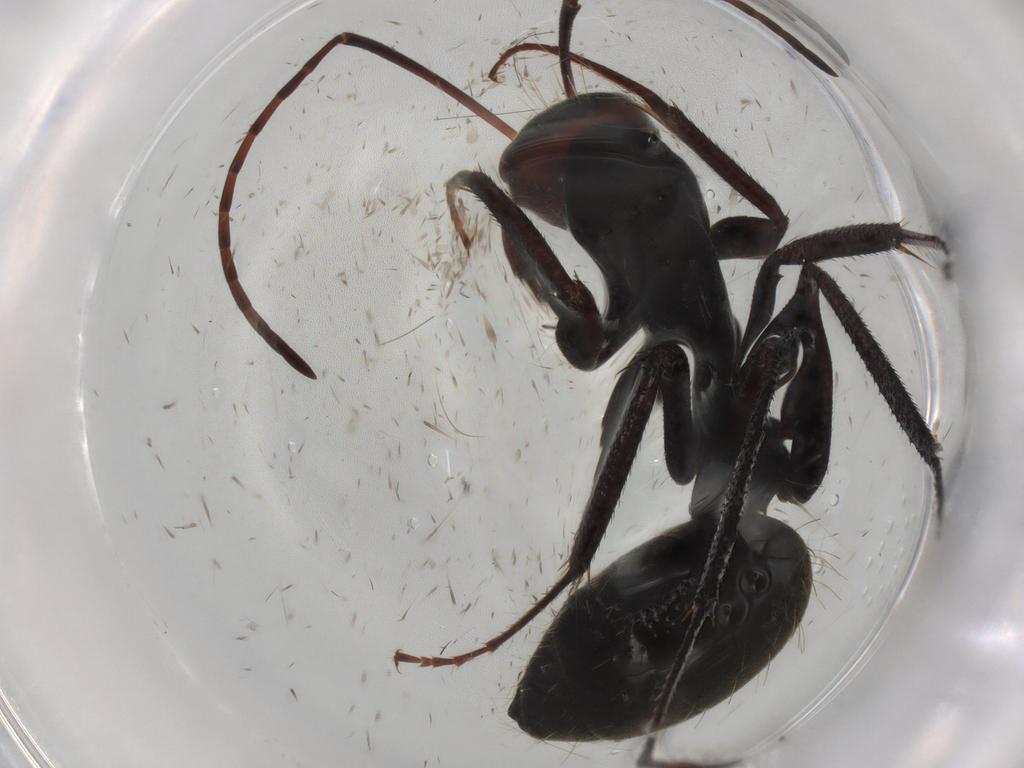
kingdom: Animalia
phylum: Arthropoda
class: Insecta
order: Hymenoptera
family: Formicidae
